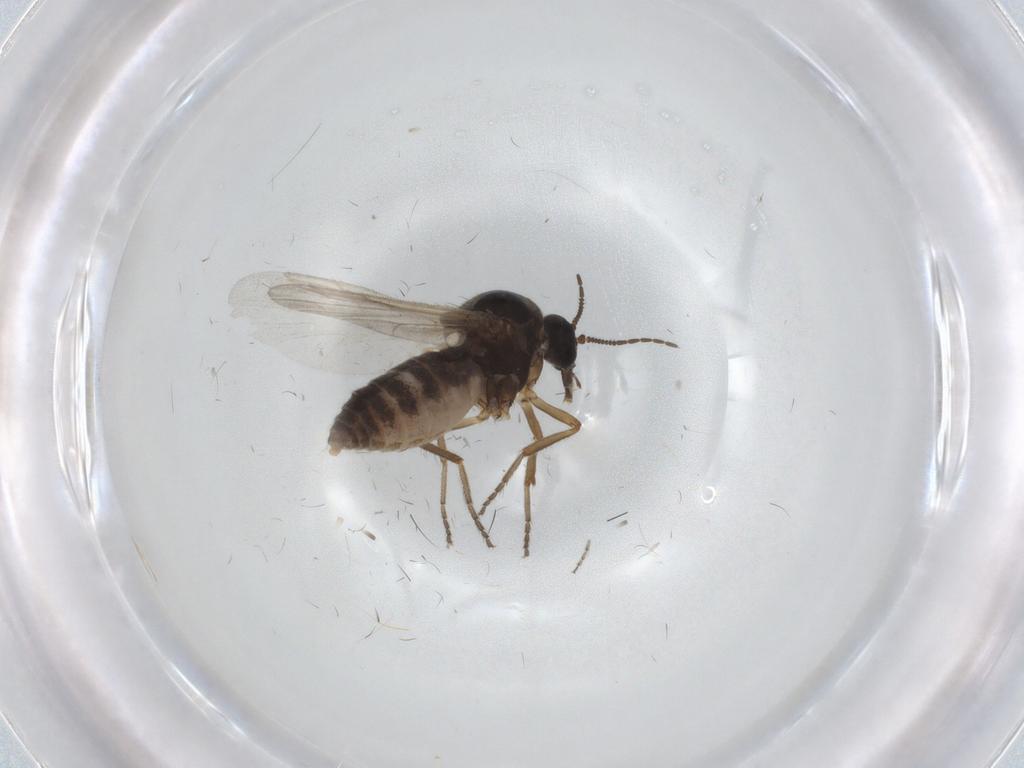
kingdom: Animalia
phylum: Arthropoda
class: Insecta
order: Diptera
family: Ceratopogonidae
